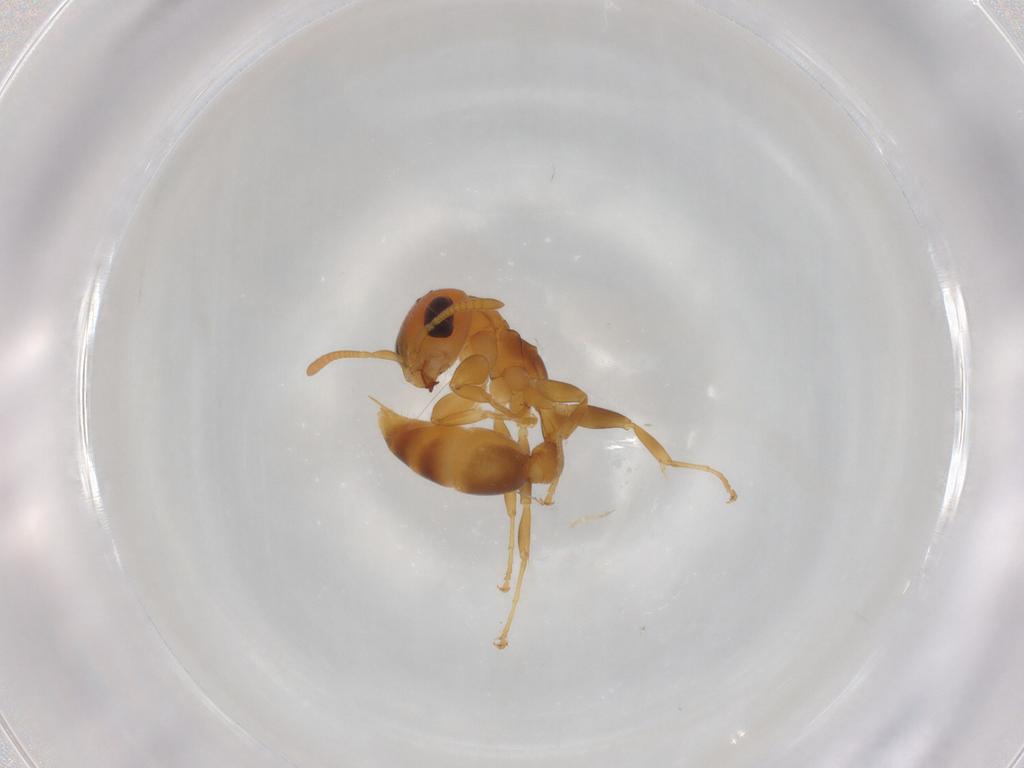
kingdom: Animalia
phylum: Arthropoda
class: Insecta
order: Hymenoptera
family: Formicidae
